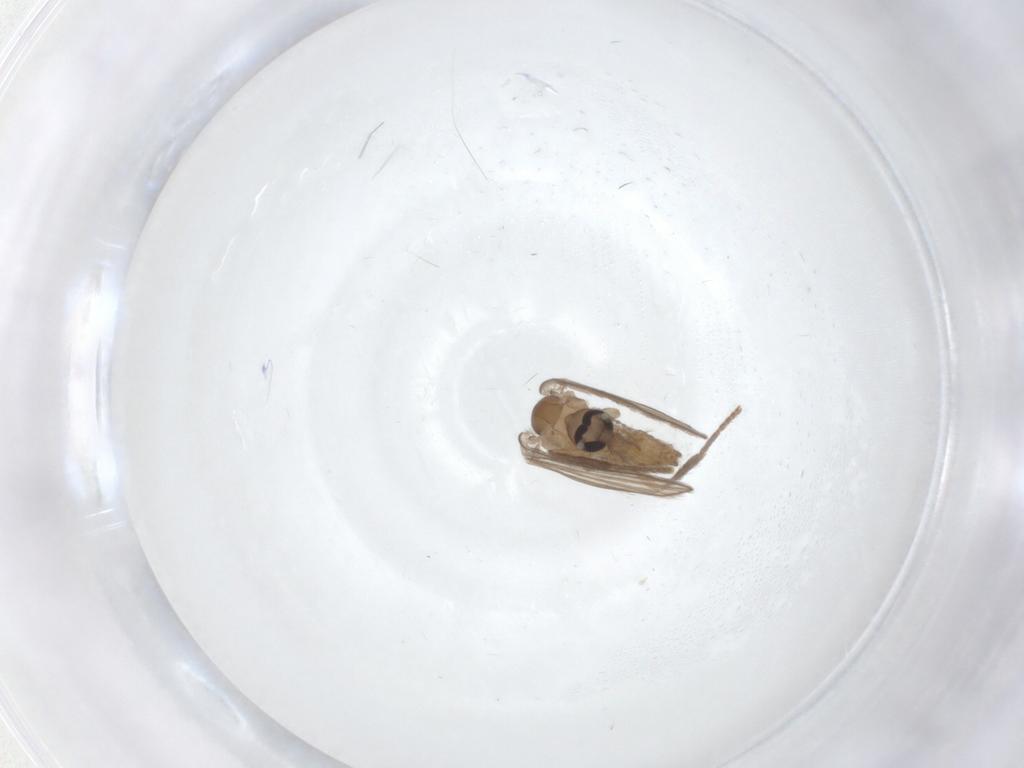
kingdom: Animalia
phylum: Arthropoda
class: Insecta
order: Diptera
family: Psychodidae
